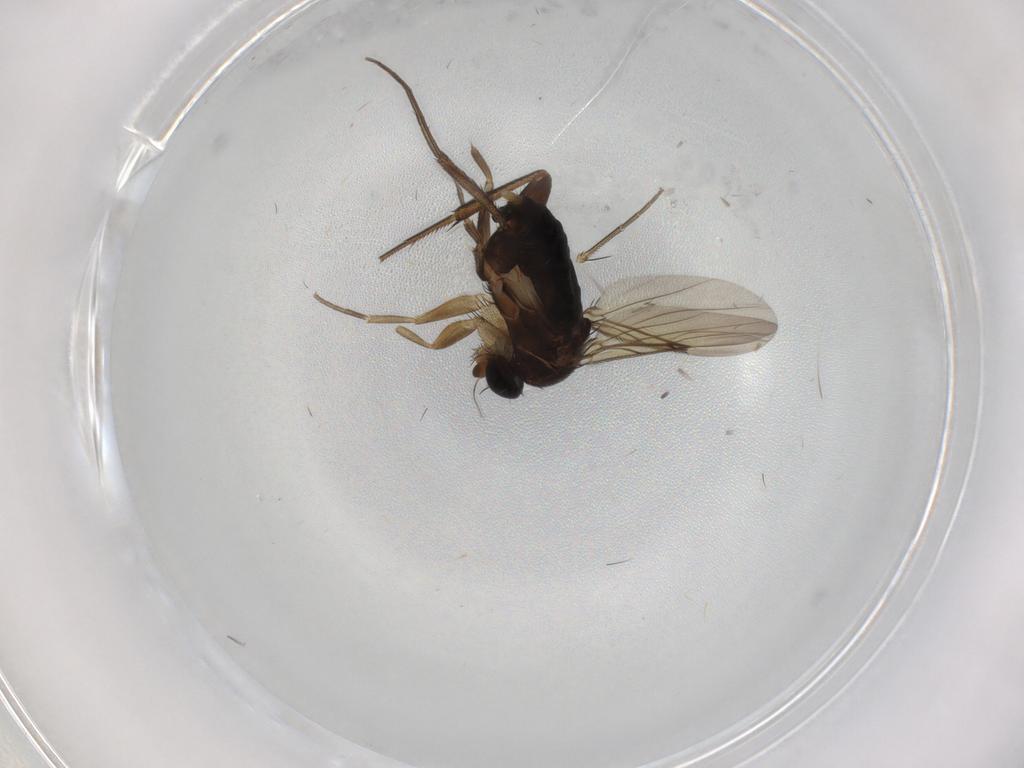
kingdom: Animalia
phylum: Arthropoda
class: Insecta
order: Diptera
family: Phoridae
